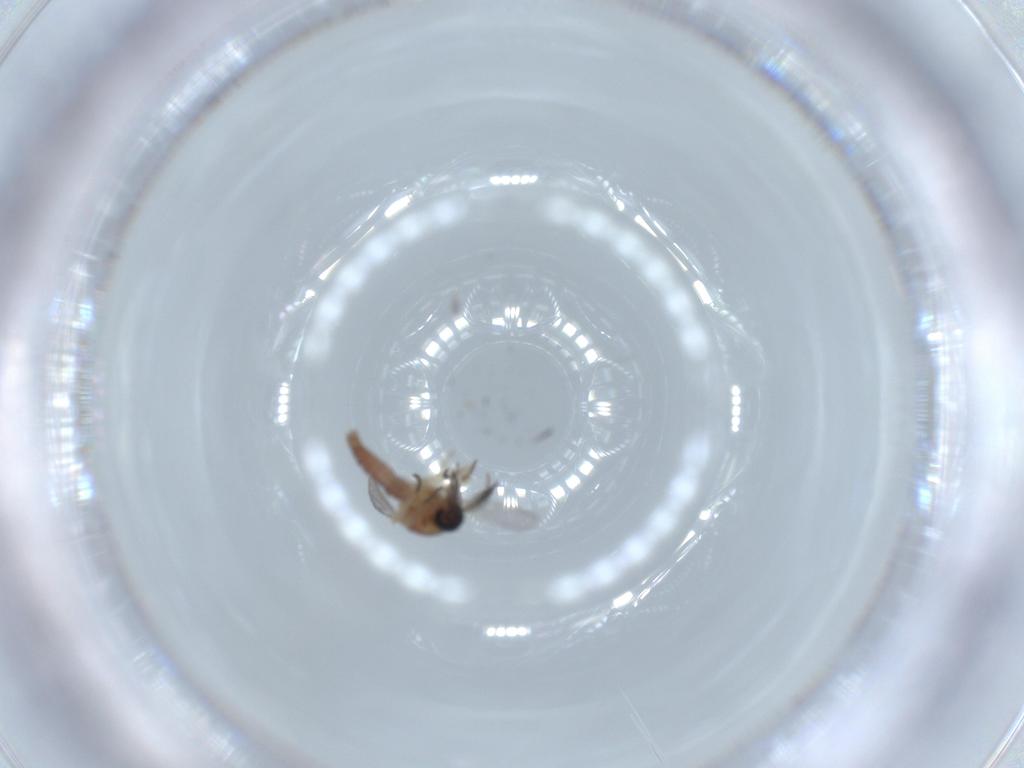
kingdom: Animalia
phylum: Arthropoda
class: Insecta
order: Diptera
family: Ceratopogonidae
